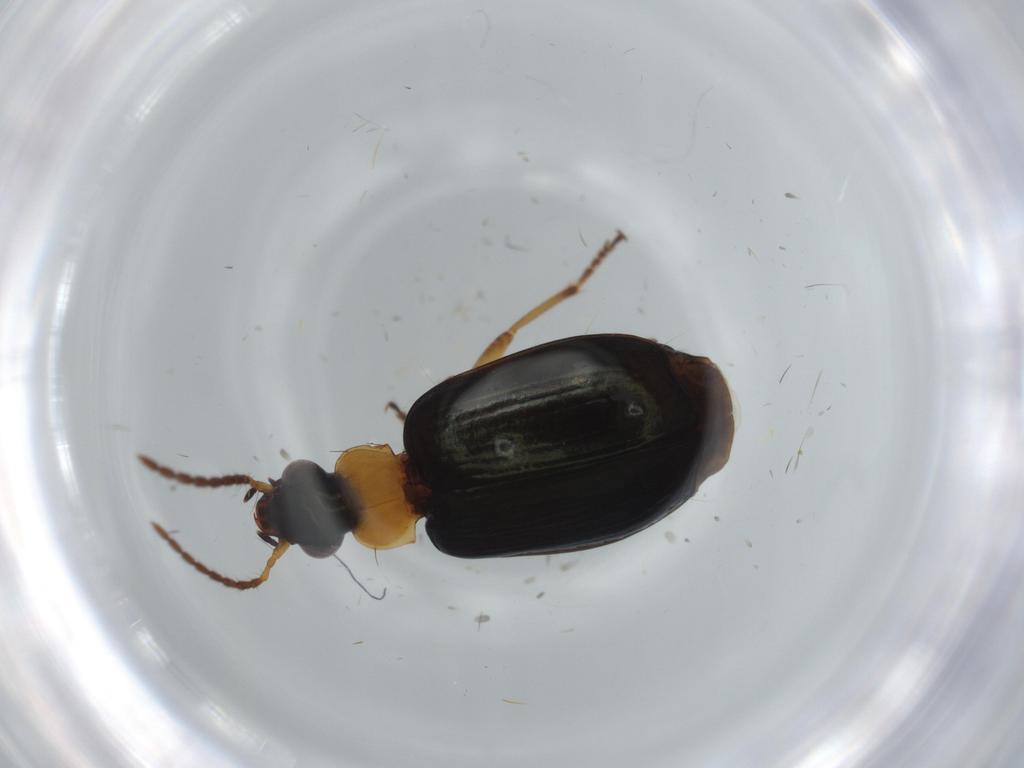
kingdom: Animalia
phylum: Arthropoda
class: Insecta
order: Coleoptera
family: Carabidae
